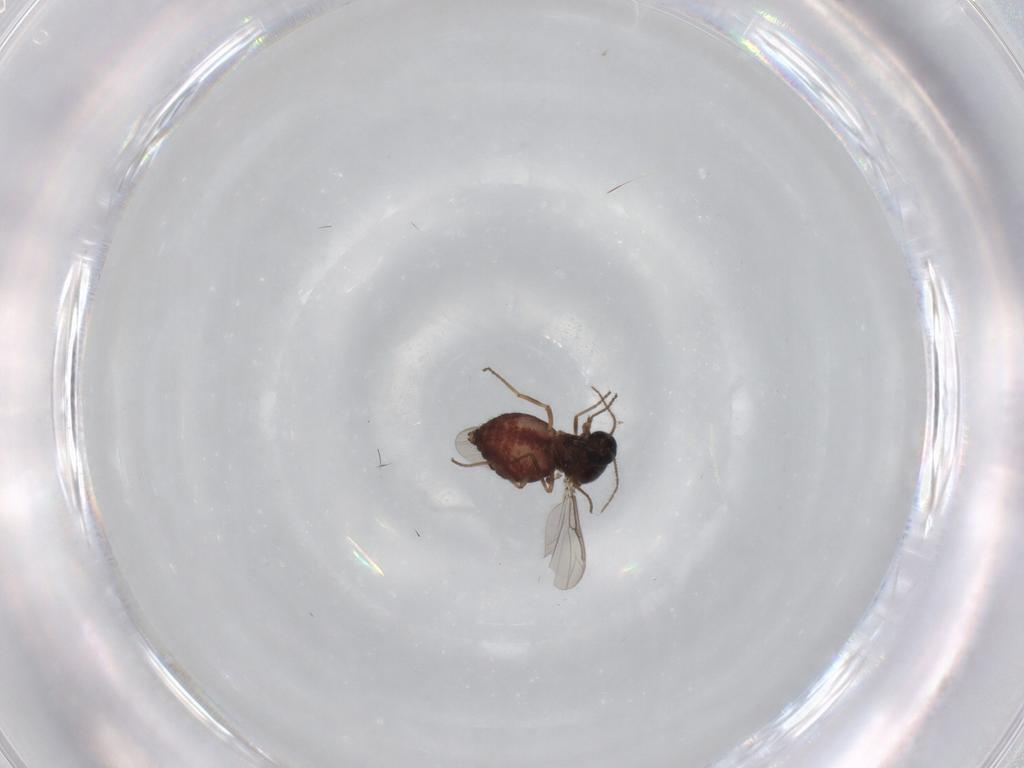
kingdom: Animalia
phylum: Arthropoda
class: Insecta
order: Diptera
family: Ceratopogonidae
